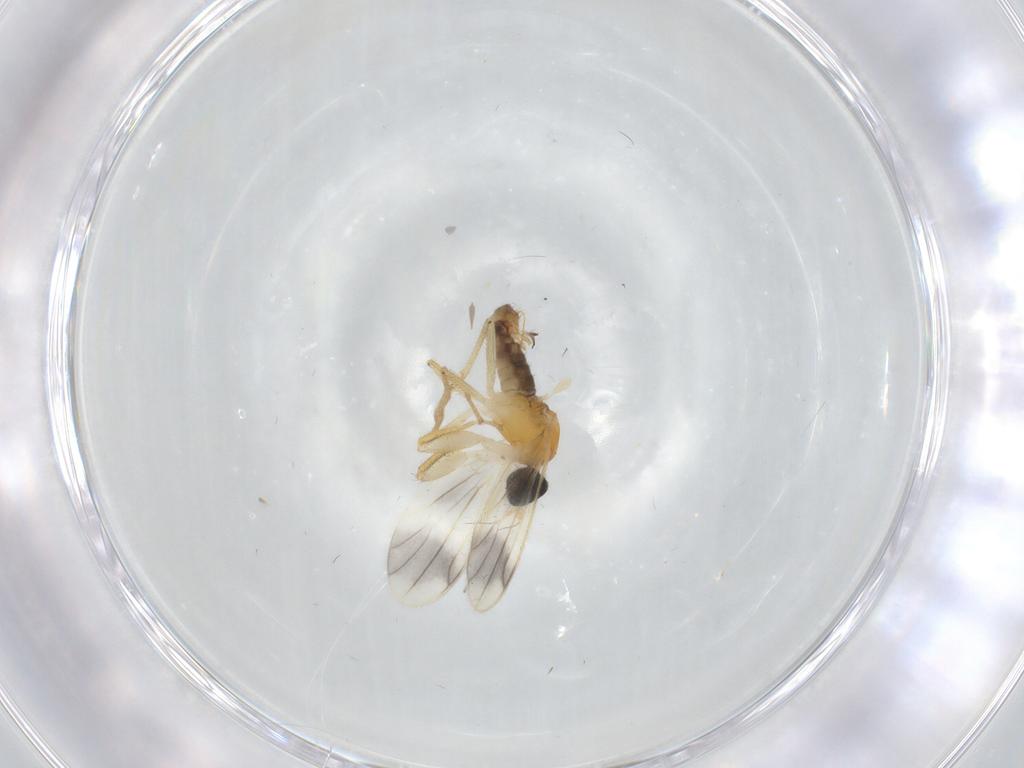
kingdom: Animalia
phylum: Arthropoda
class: Insecta
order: Diptera
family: Empididae
